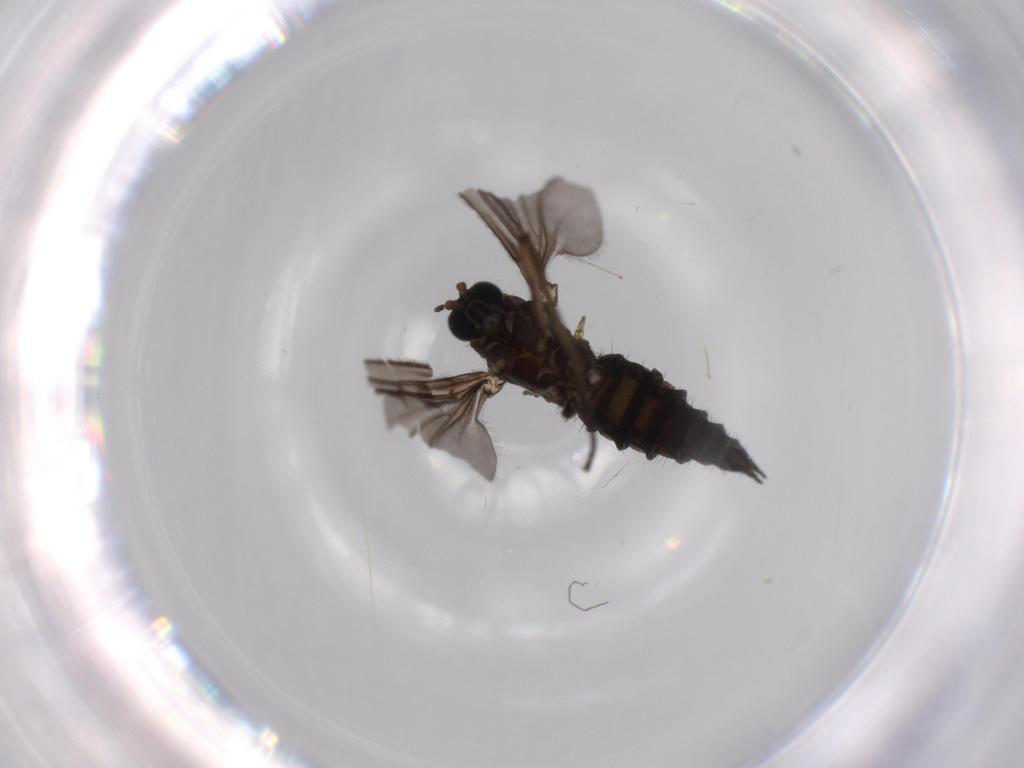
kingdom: Animalia
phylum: Arthropoda
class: Insecta
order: Diptera
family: Sciaridae
